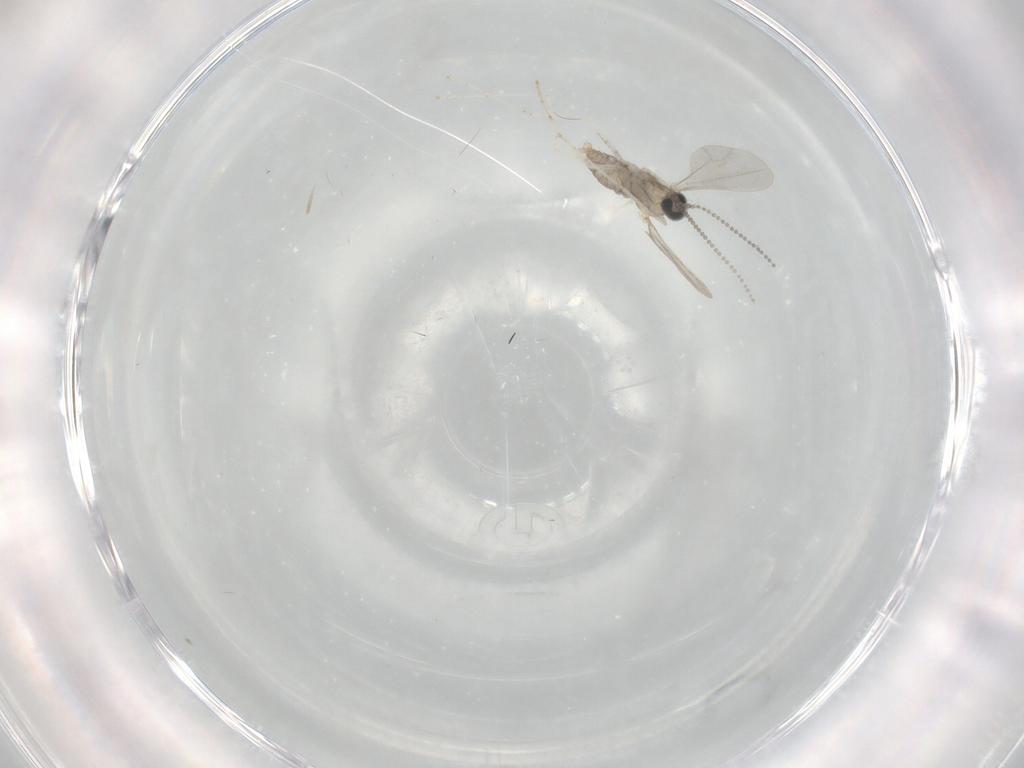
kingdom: Animalia
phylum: Arthropoda
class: Insecta
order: Diptera
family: Cecidomyiidae
